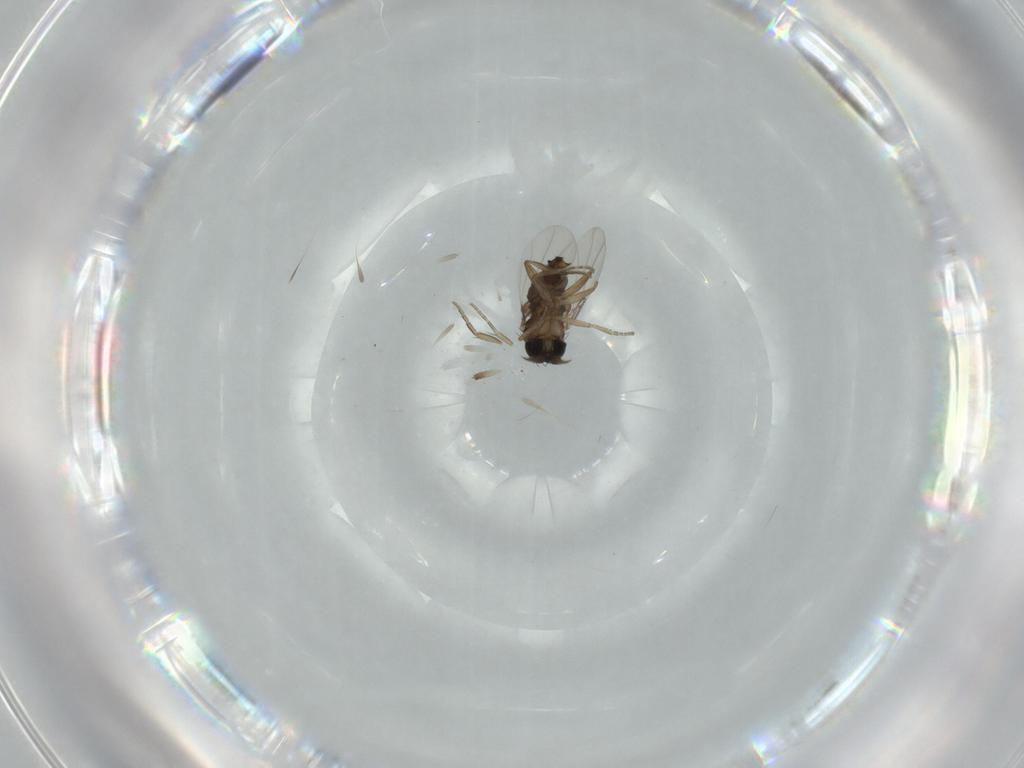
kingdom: Animalia
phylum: Arthropoda
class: Insecta
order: Diptera
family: Phoridae
